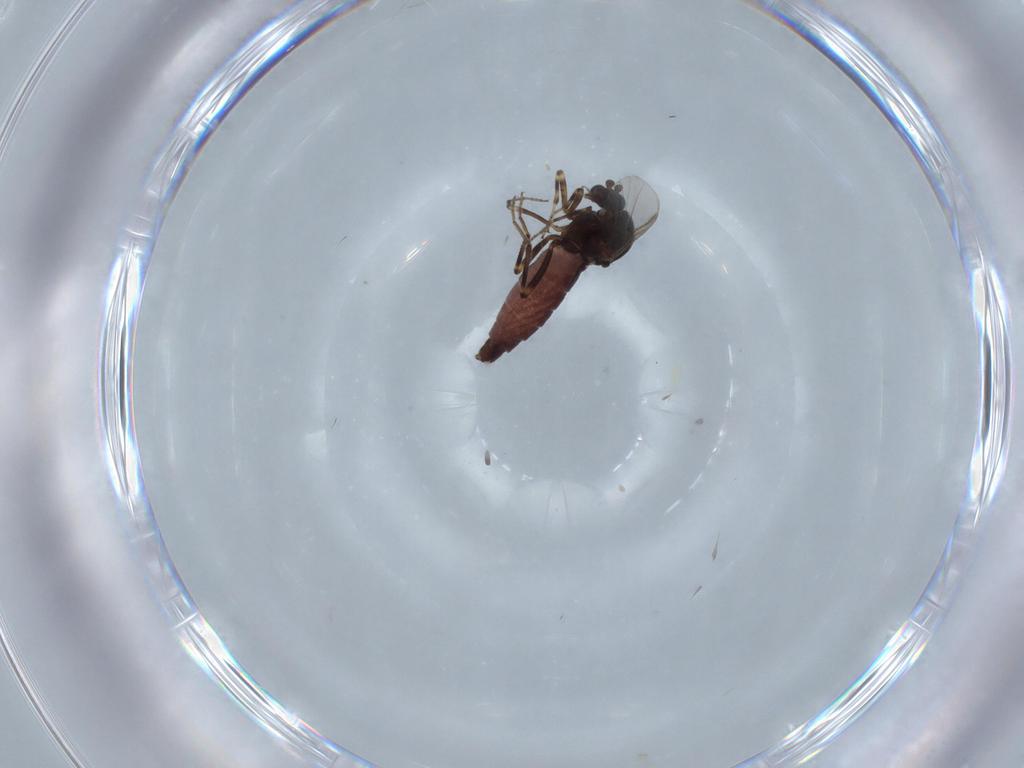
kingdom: Animalia
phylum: Arthropoda
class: Insecta
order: Diptera
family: Ceratopogonidae
